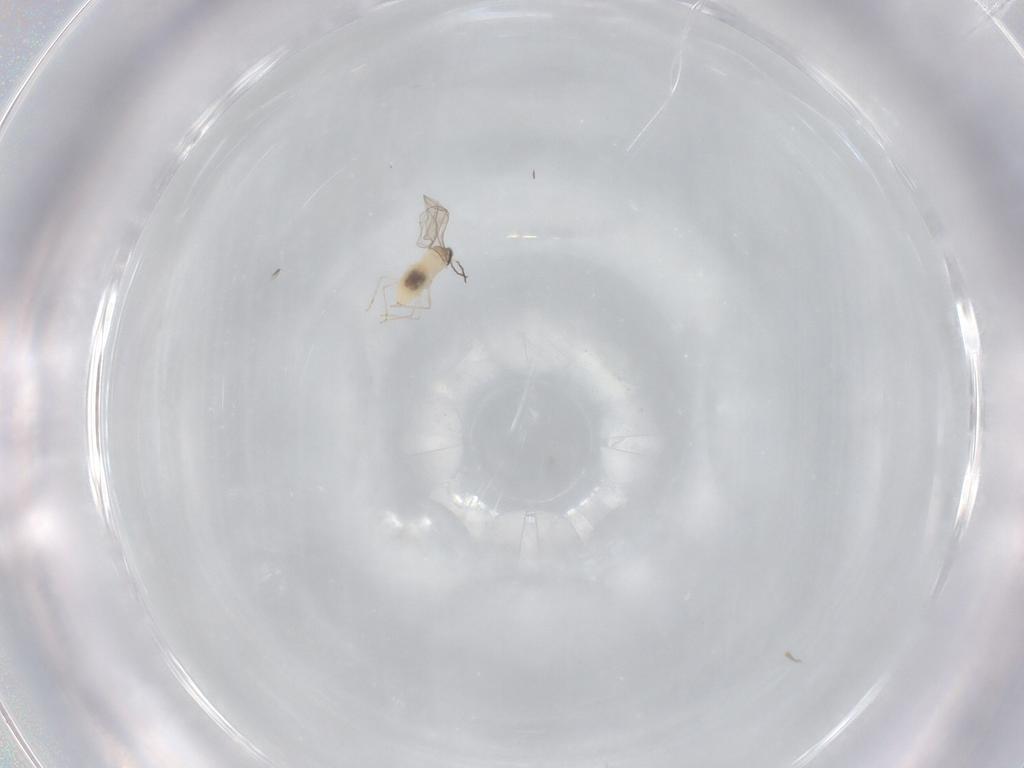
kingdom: Animalia
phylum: Arthropoda
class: Insecta
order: Diptera
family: Cecidomyiidae
